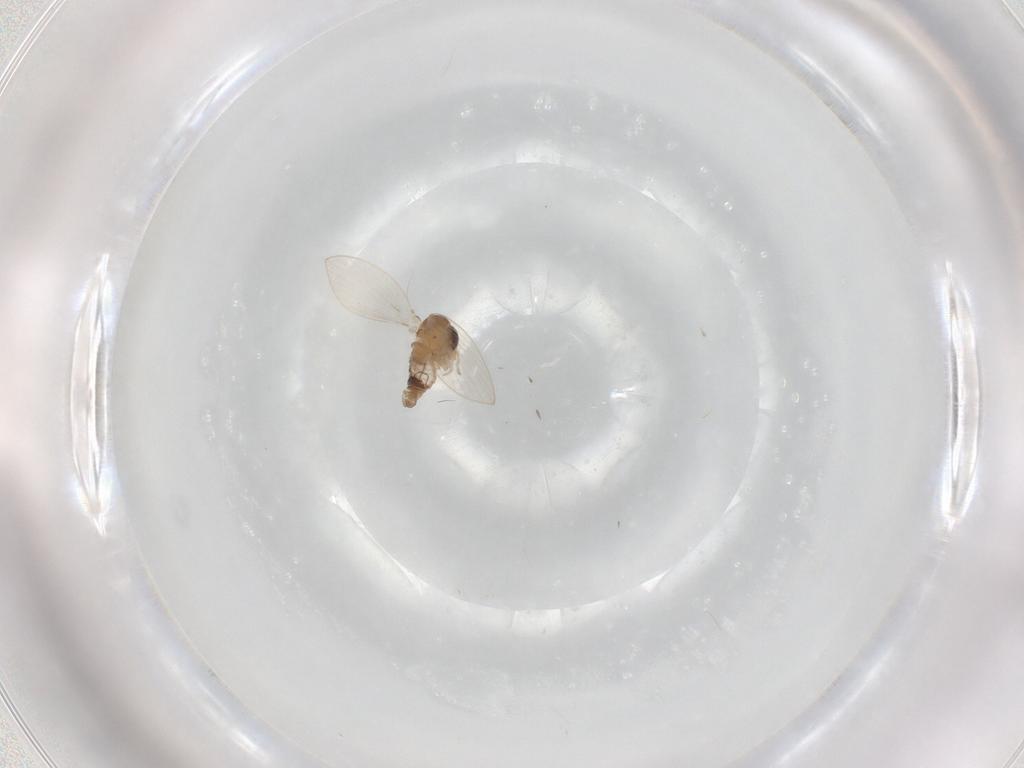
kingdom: Animalia
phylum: Arthropoda
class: Insecta
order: Diptera
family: Psychodidae
